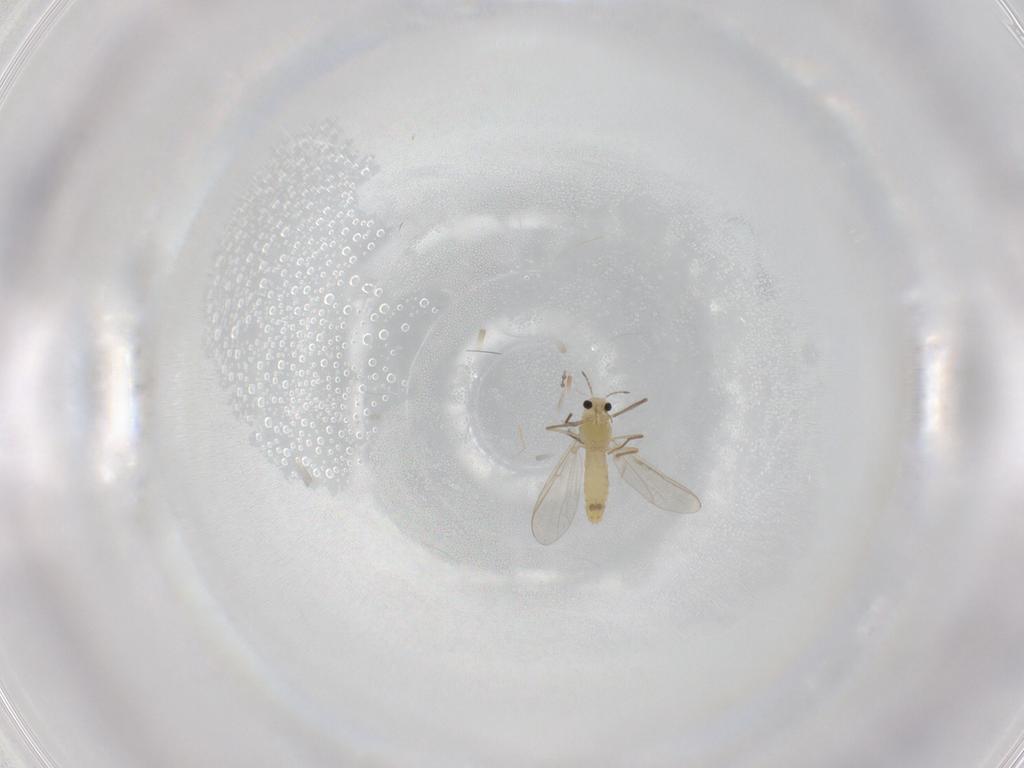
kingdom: Animalia
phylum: Arthropoda
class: Insecta
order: Diptera
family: Chironomidae
